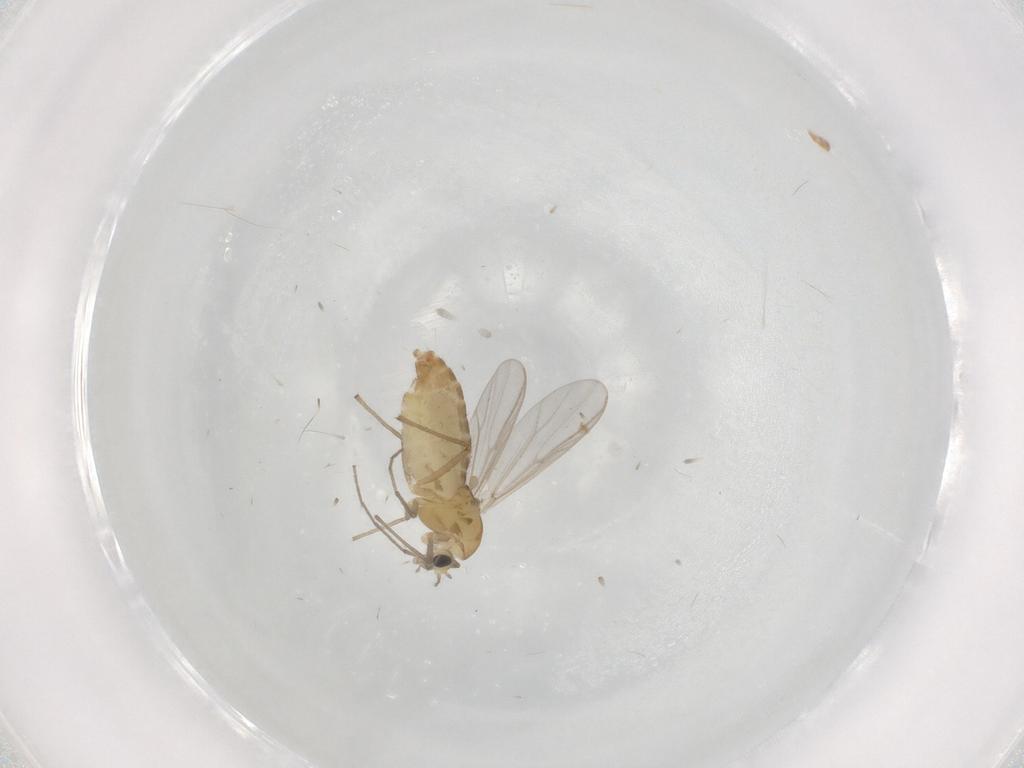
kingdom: Animalia
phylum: Arthropoda
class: Insecta
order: Diptera
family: Chironomidae
